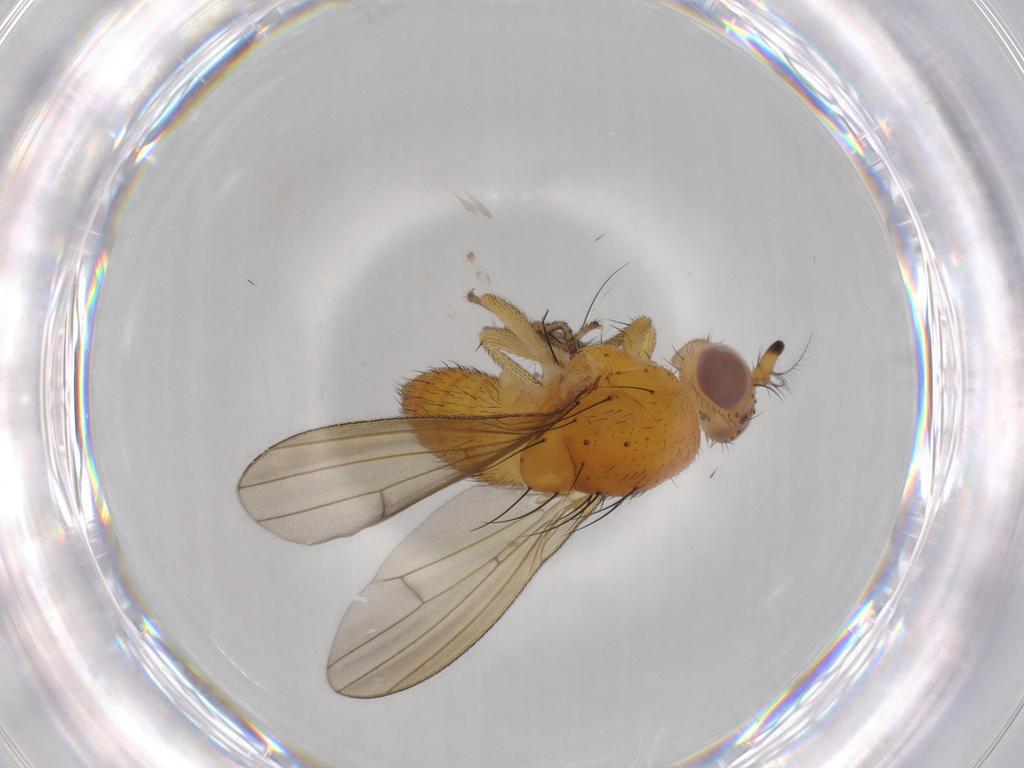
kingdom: Animalia
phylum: Arthropoda
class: Insecta
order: Diptera
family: Lauxaniidae
